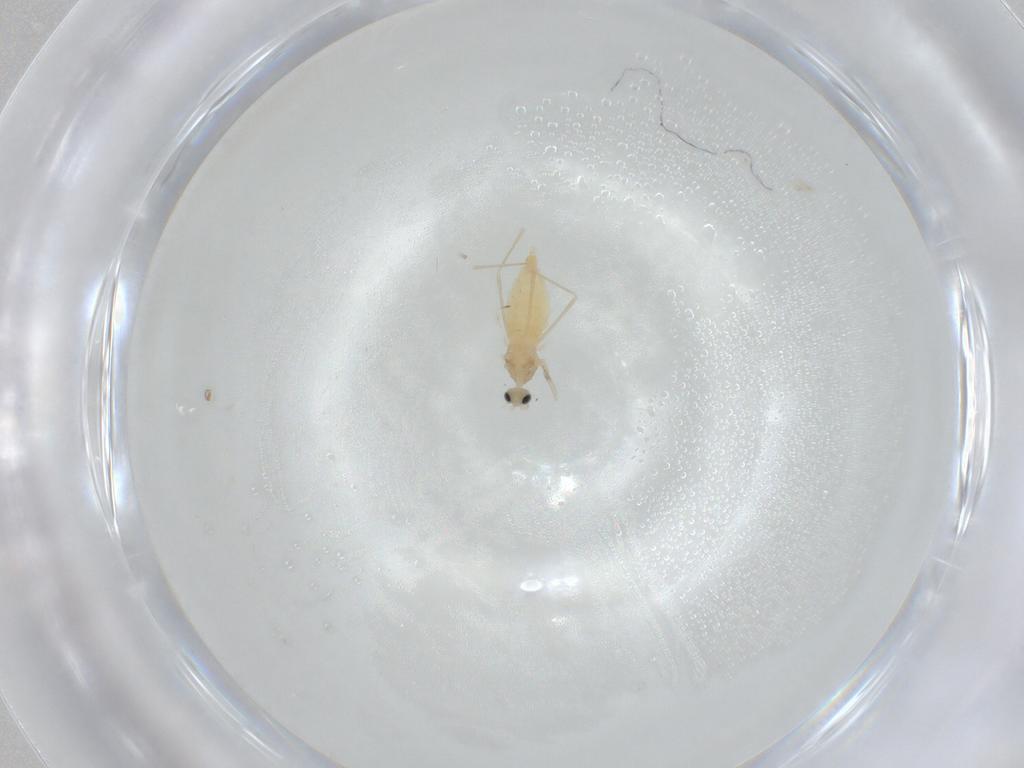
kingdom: Animalia
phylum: Arthropoda
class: Insecta
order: Diptera
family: Cecidomyiidae
